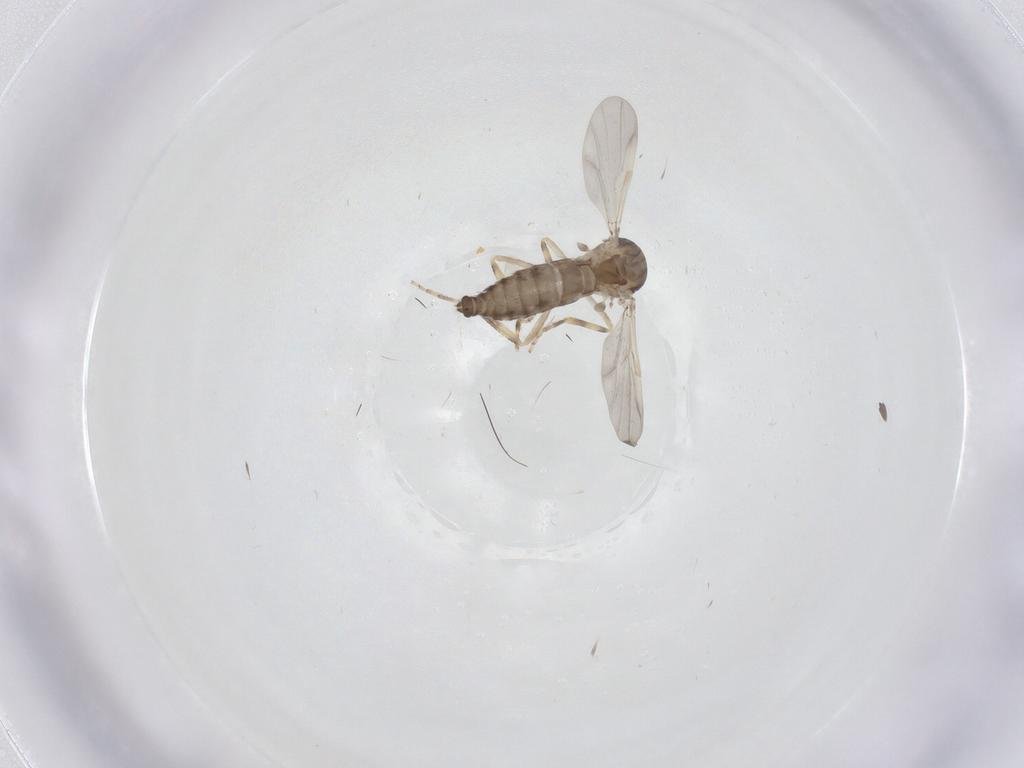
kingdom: Animalia
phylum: Arthropoda
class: Insecta
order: Diptera
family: Ceratopogonidae
